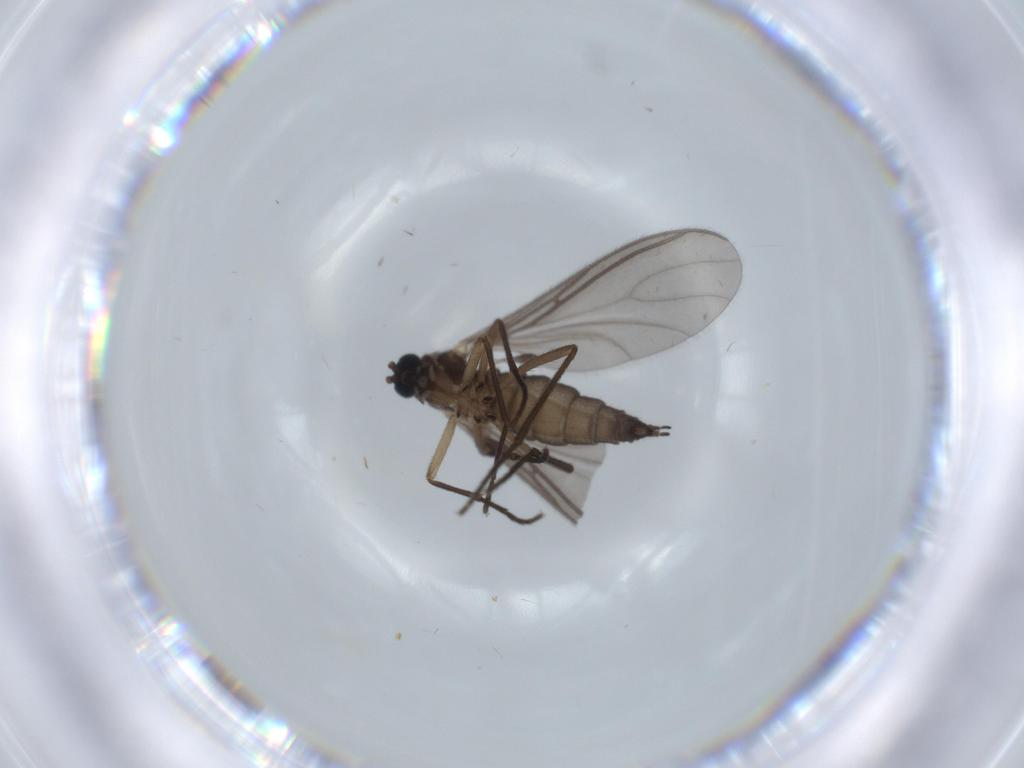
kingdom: Animalia
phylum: Arthropoda
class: Insecta
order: Diptera
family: Sciaridae
